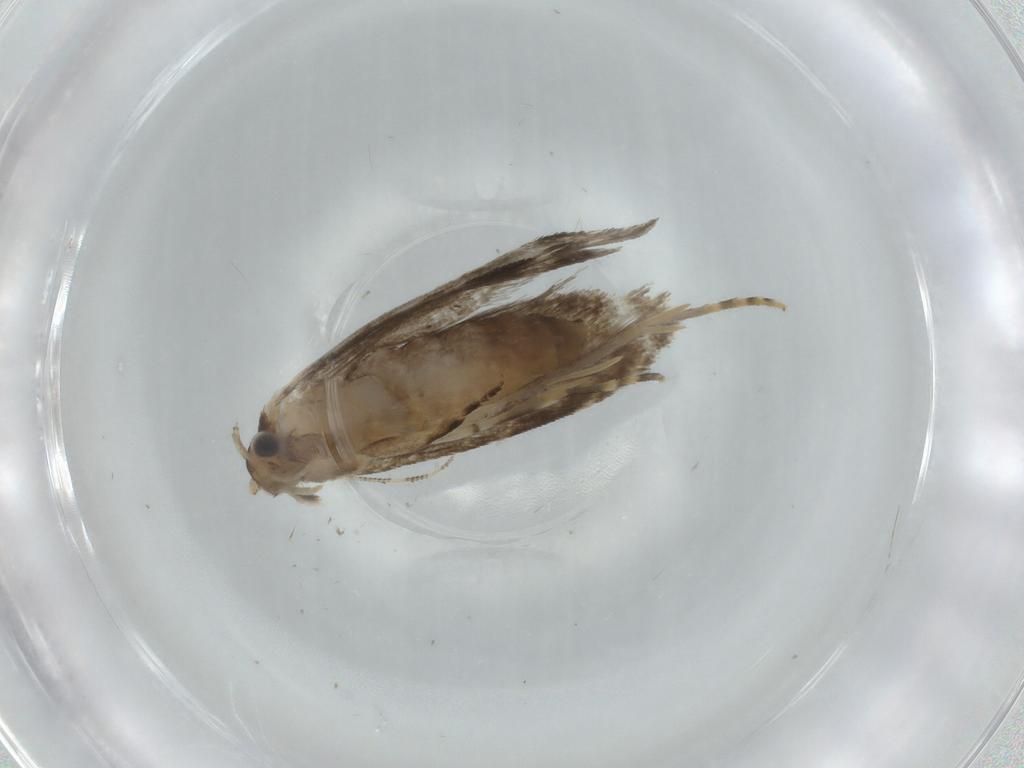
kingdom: Animalia
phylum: Arthropoda
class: Insecta
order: Lepidoptera
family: Tineidae
